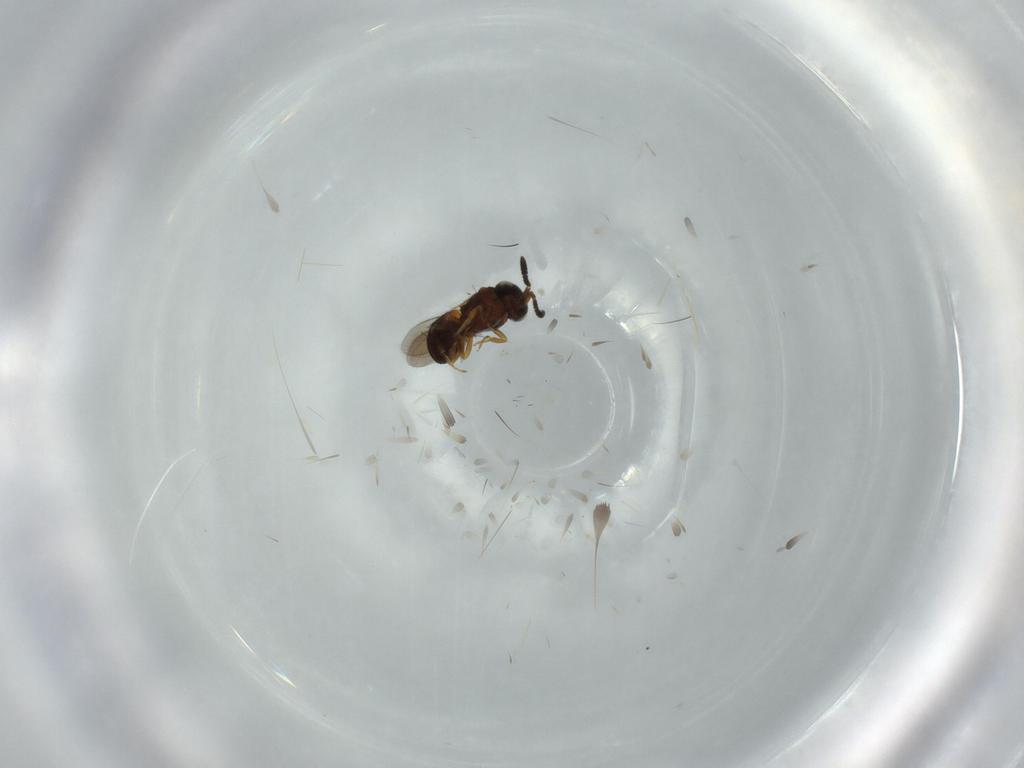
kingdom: Animalia
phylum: Arthropoda
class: Insecta
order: Hymenoptera
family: Scelionidae
